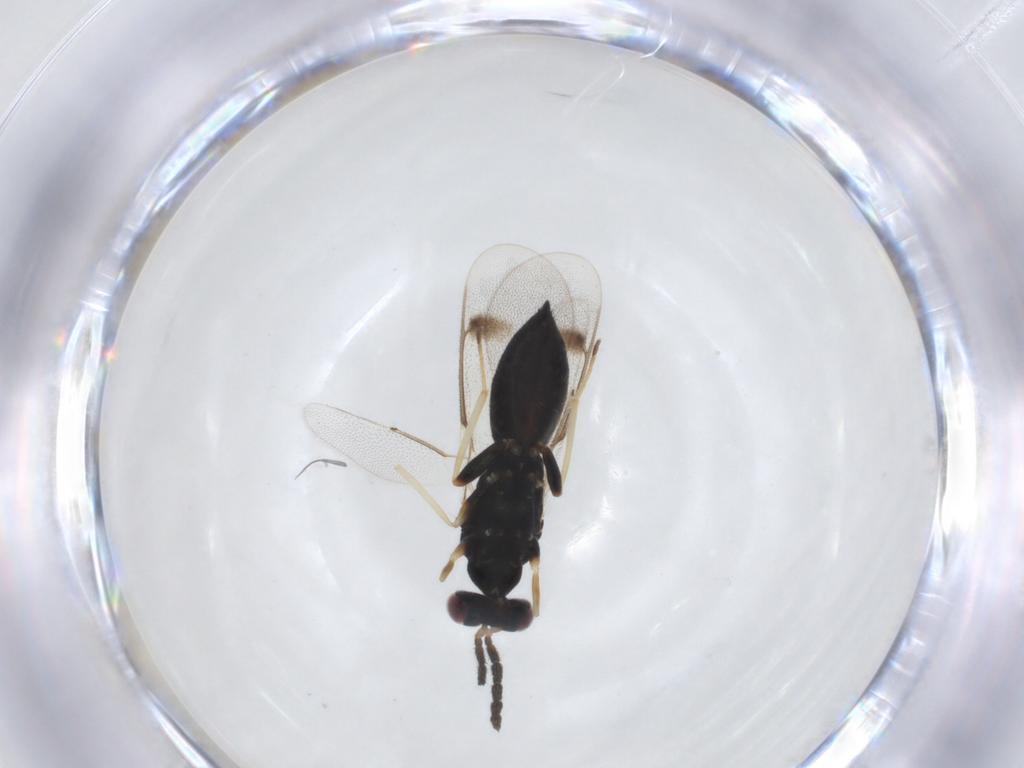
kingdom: Animalia
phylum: Arthropoda
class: Insecta
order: Hymenoptera
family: Eulophidae
